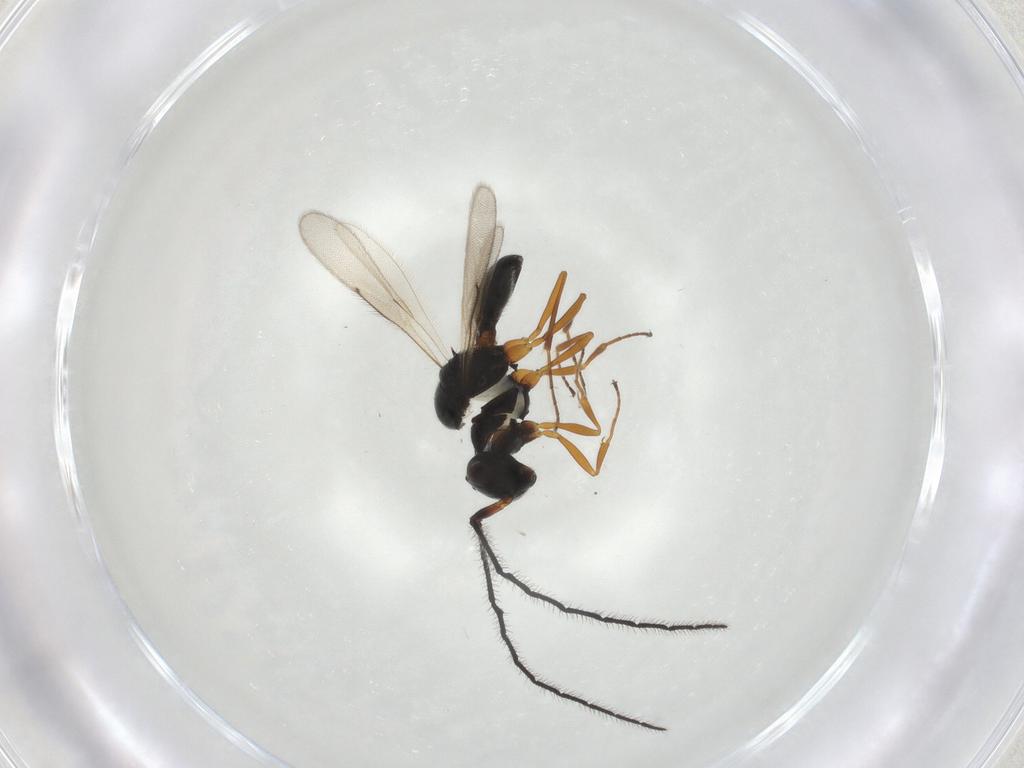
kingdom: Animalia
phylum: Arthropoda
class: Insecta
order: Hymenoptera
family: Scelionidae
